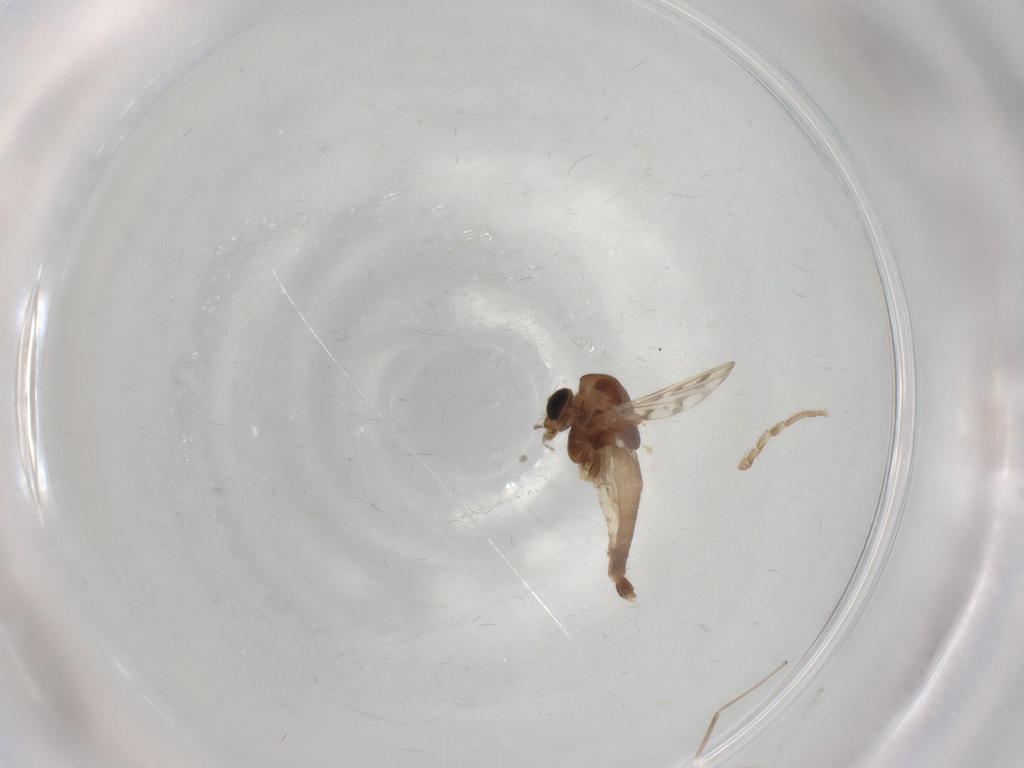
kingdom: Animalia
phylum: Arthropoda
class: Insecta
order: Diptera
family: Chironomidae
